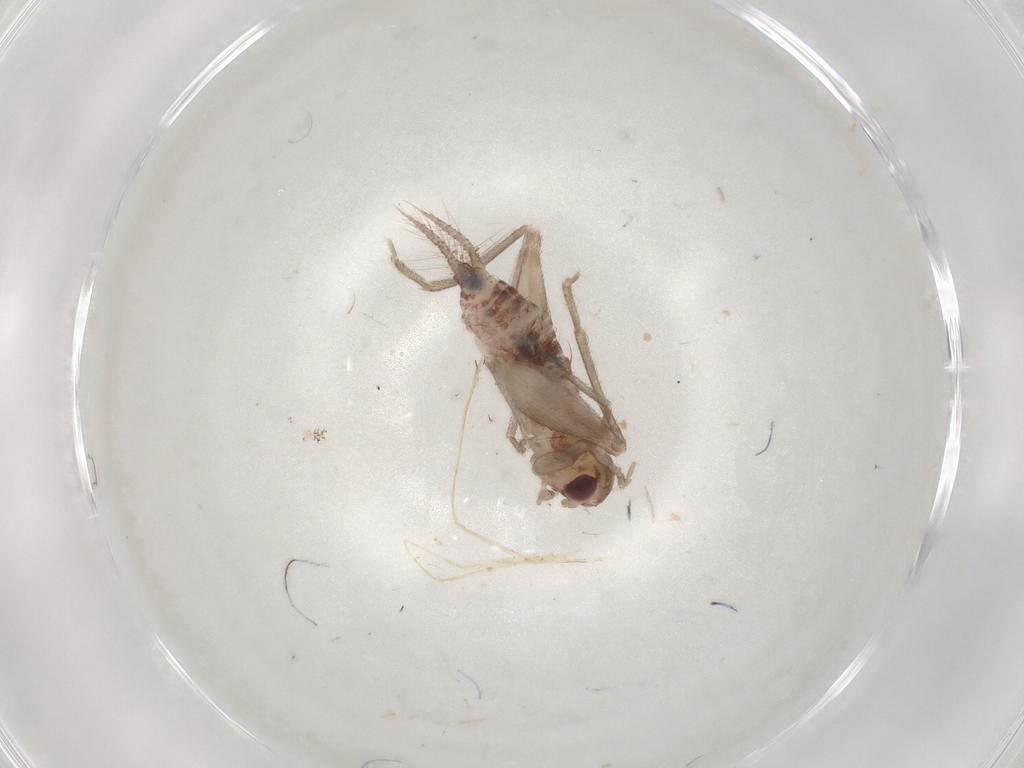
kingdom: Animalia
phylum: Arthropoda
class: Insecta
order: Orthoptera
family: Trigonidiidae
